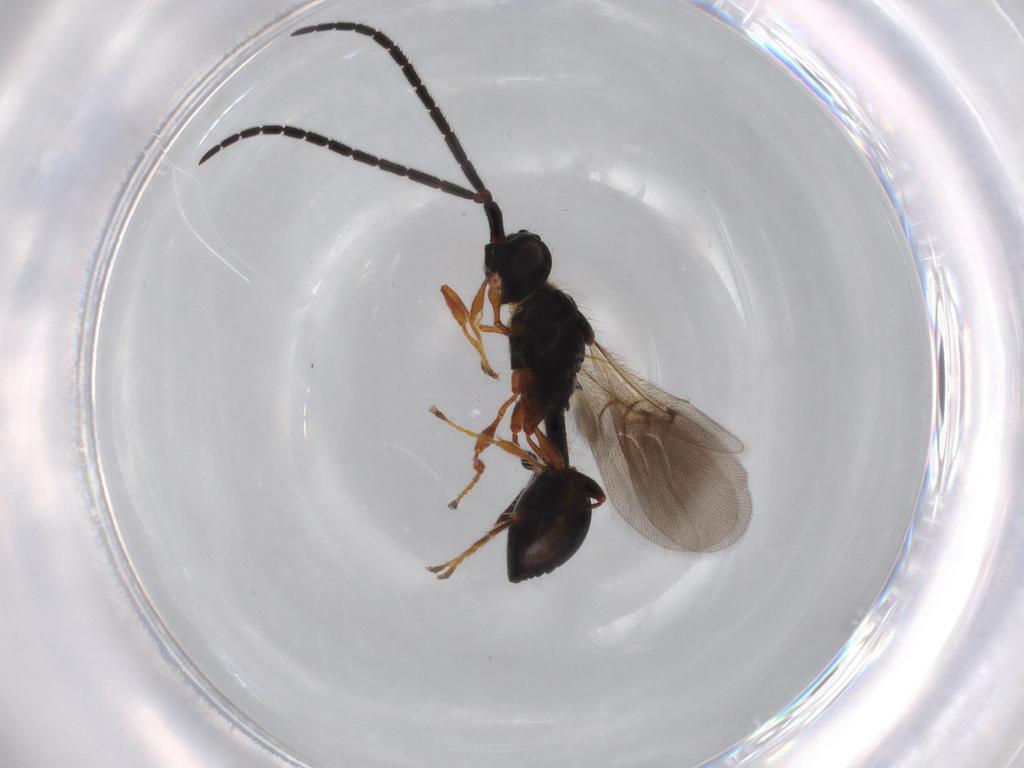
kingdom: Animalia
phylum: Arthropoda
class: Insecta
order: Hymenoptera
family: Diapriidae
